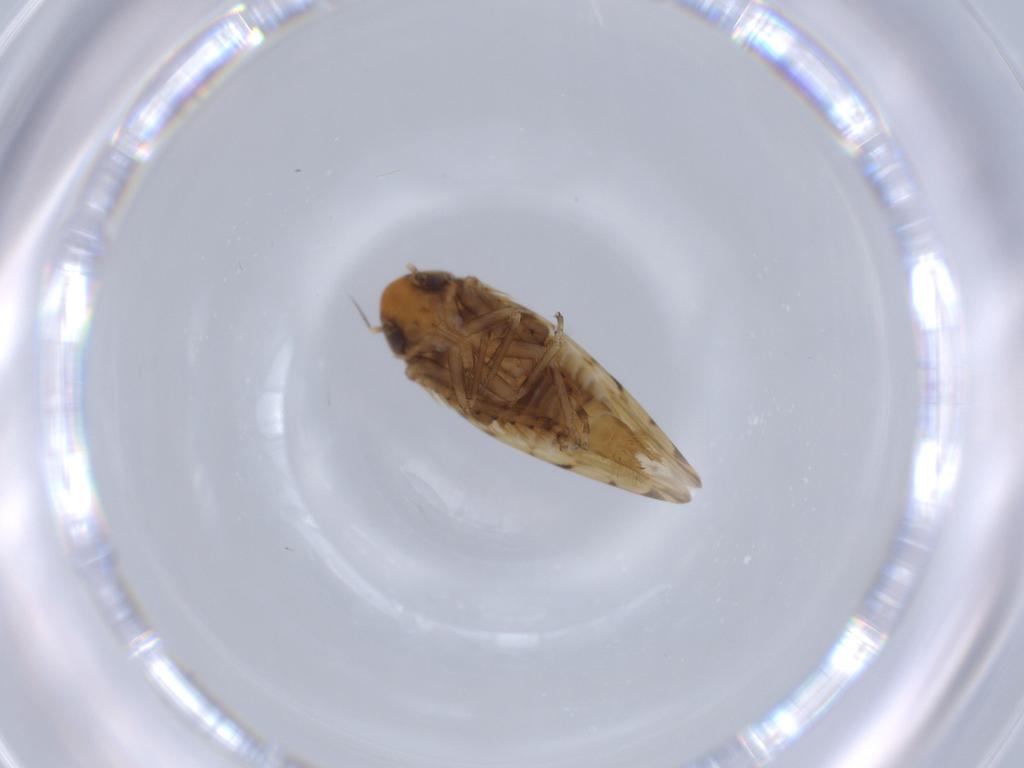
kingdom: Animalia
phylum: Arthropoda
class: Insecta
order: Hemiptera
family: Cicadellidae
